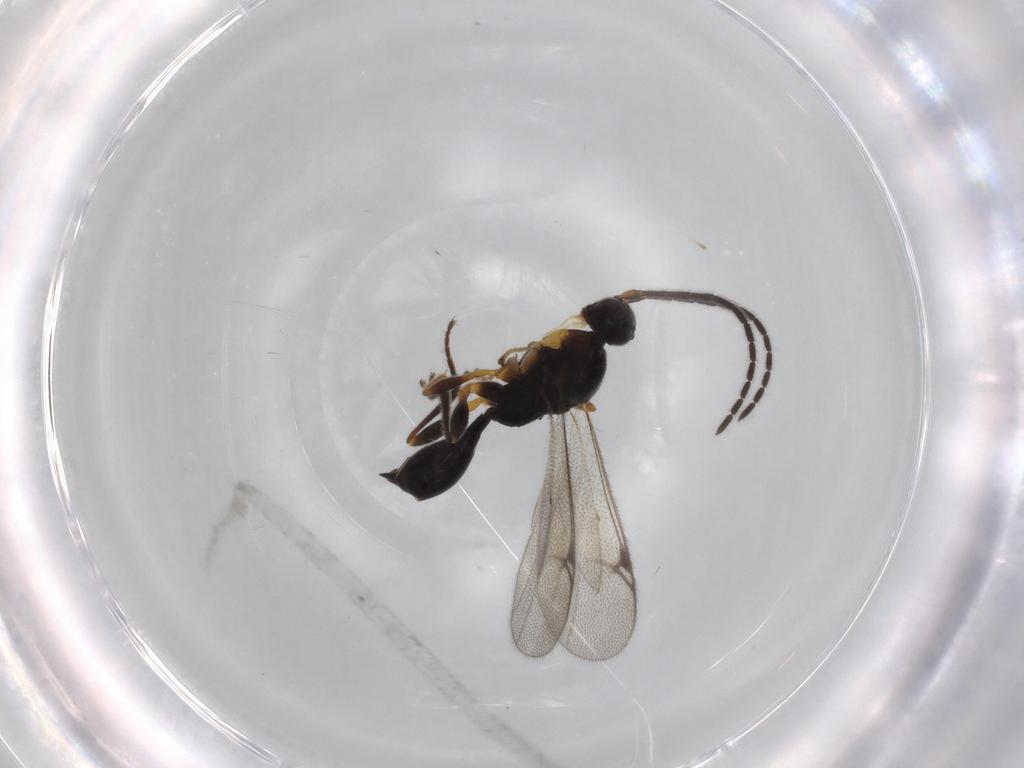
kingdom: Animalia
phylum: Arthropoda
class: Insecta
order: Hymenoptera
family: Proctotrupidae
